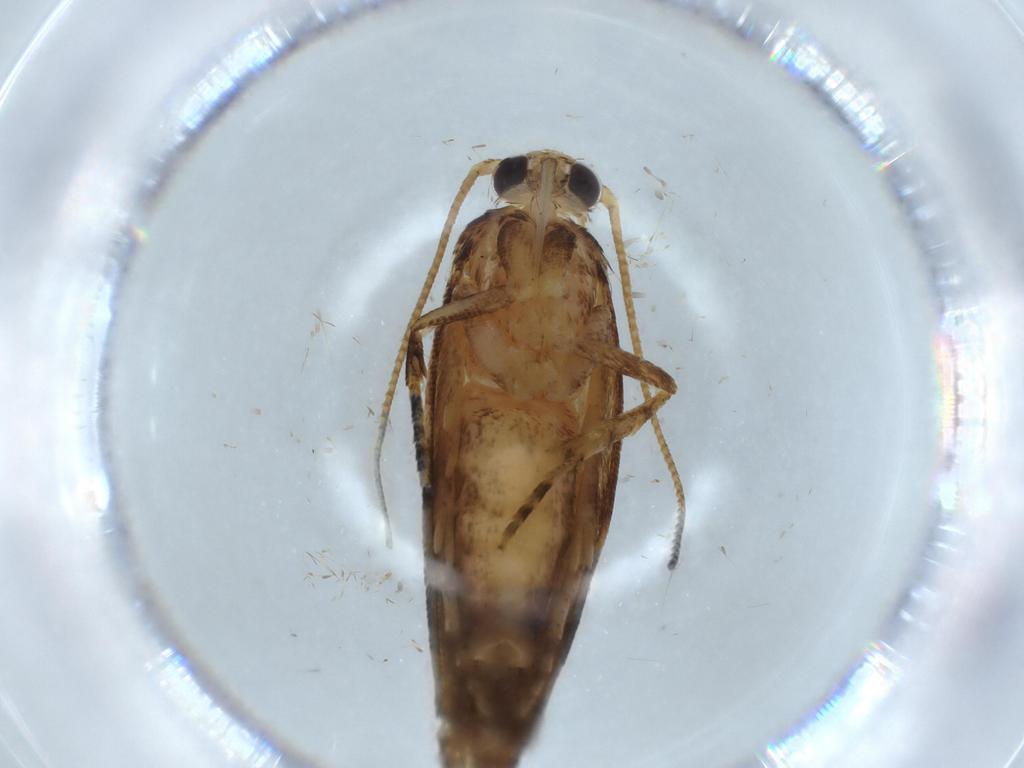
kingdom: Animalia
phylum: Arthropoda
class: Insecta
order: Lepidoptera
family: Autostichidae
